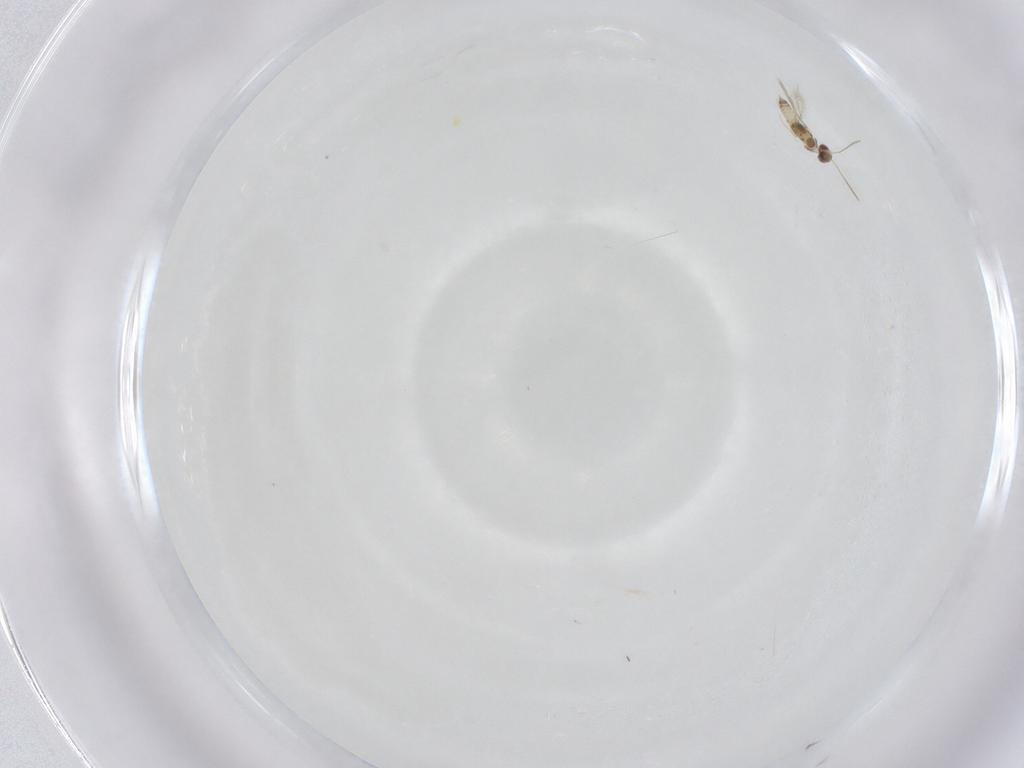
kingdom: Animalia
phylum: Arthropoda
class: Insecta
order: Hymenoptera
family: Mymaridae
